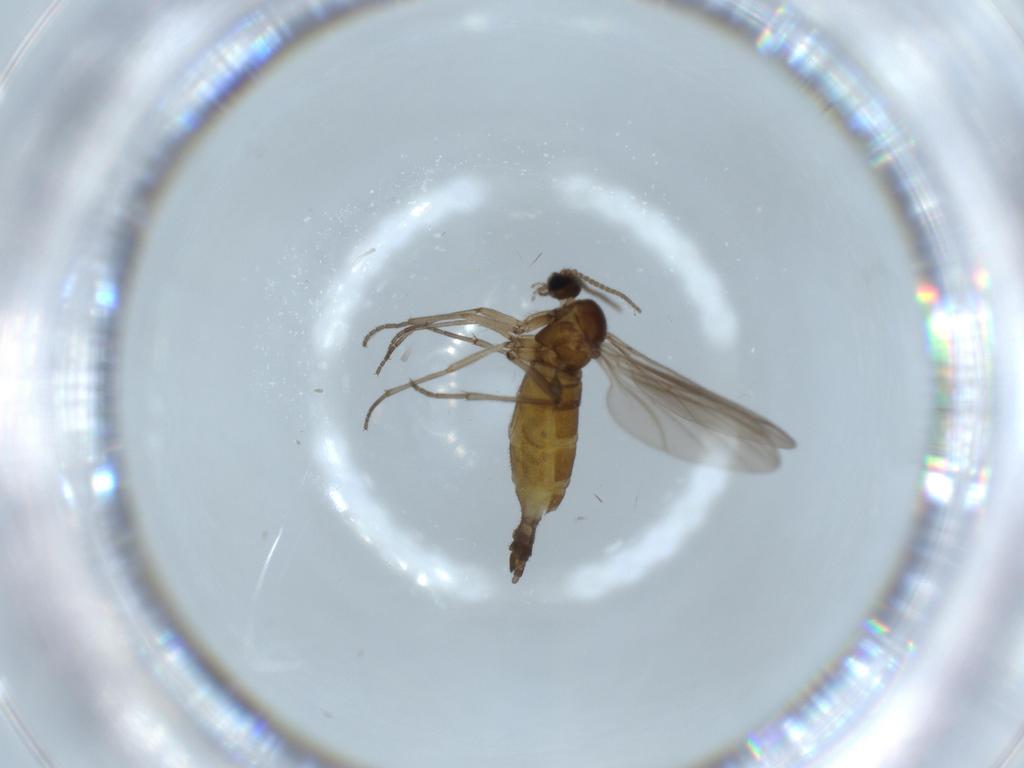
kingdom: Animalia
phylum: Arthropoda
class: Insecta
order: Diptera
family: Sciaridae
